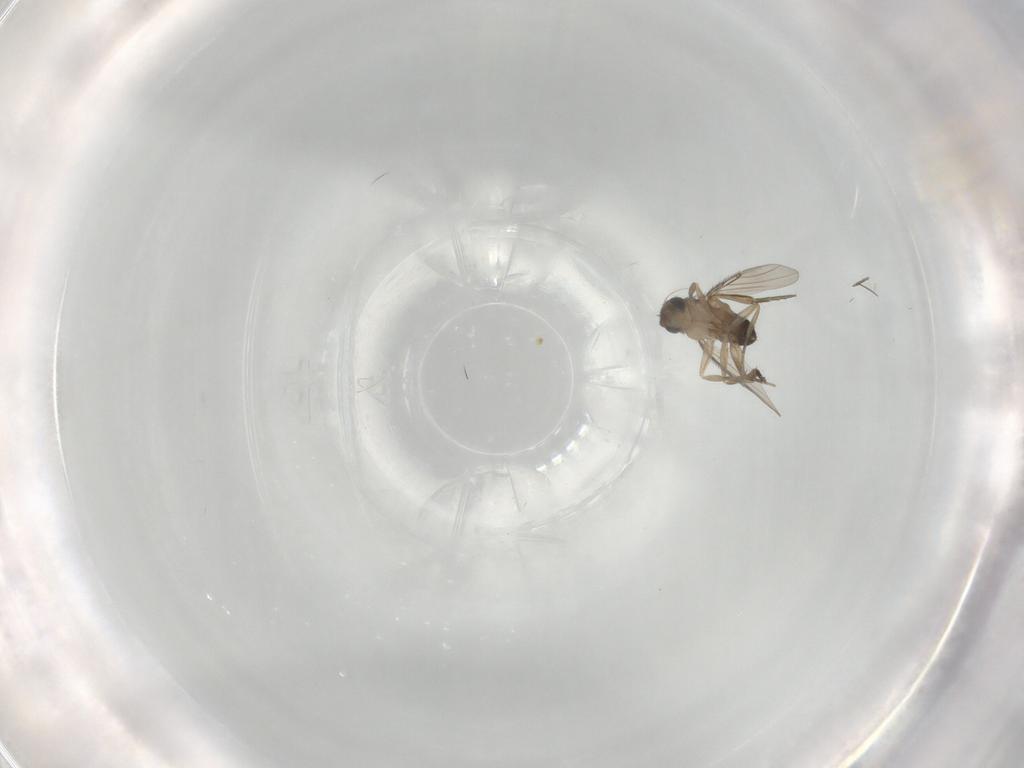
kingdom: Animalia
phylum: Arthropoda
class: Insecta
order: Diptera
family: Phoridae
